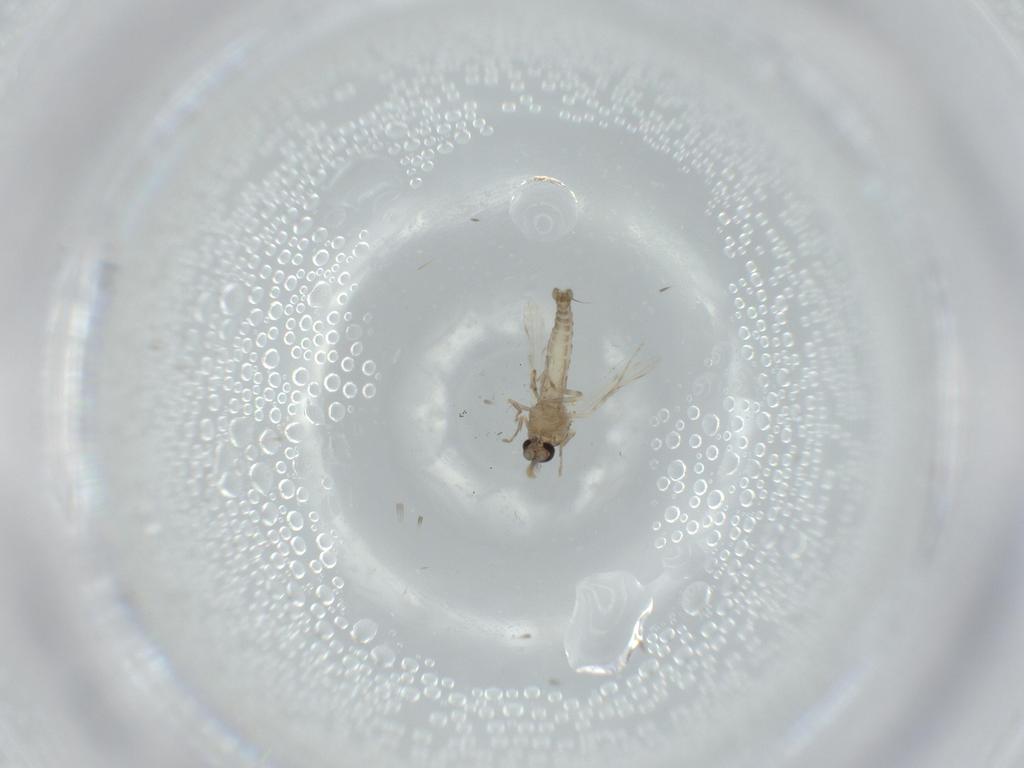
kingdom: Animalia
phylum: Arthropoda
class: Insecta
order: Diptera
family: Ceratopogonidae
